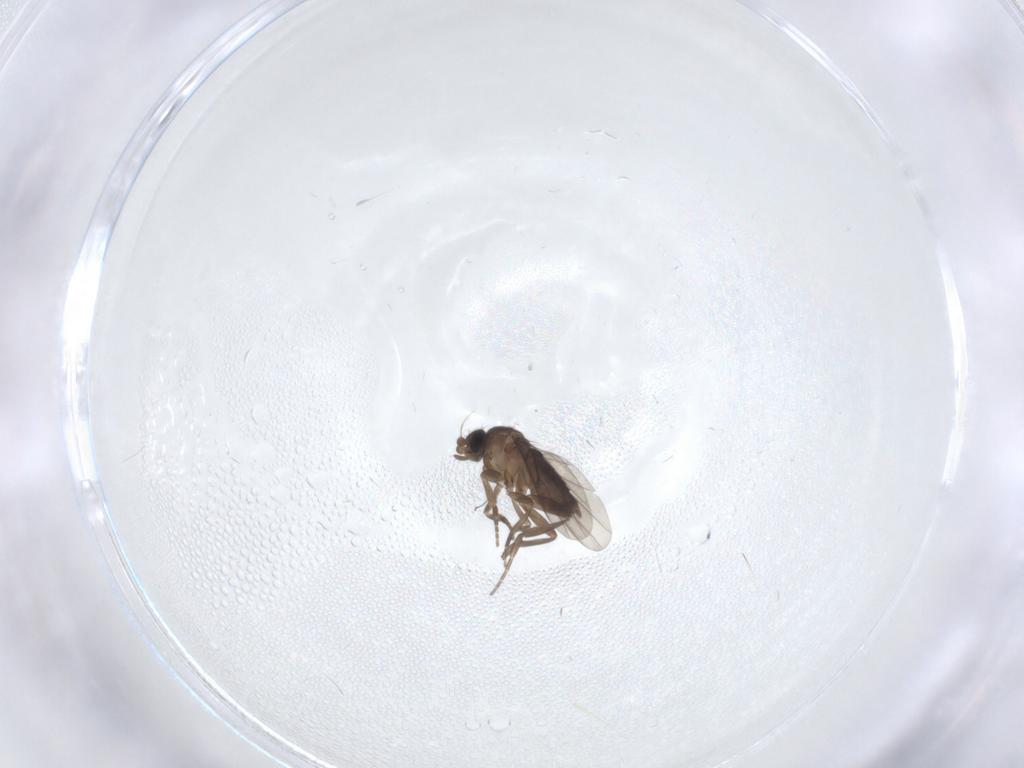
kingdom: Animalia
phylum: Arthropoda
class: Insecta
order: Diptera
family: Phoridae
